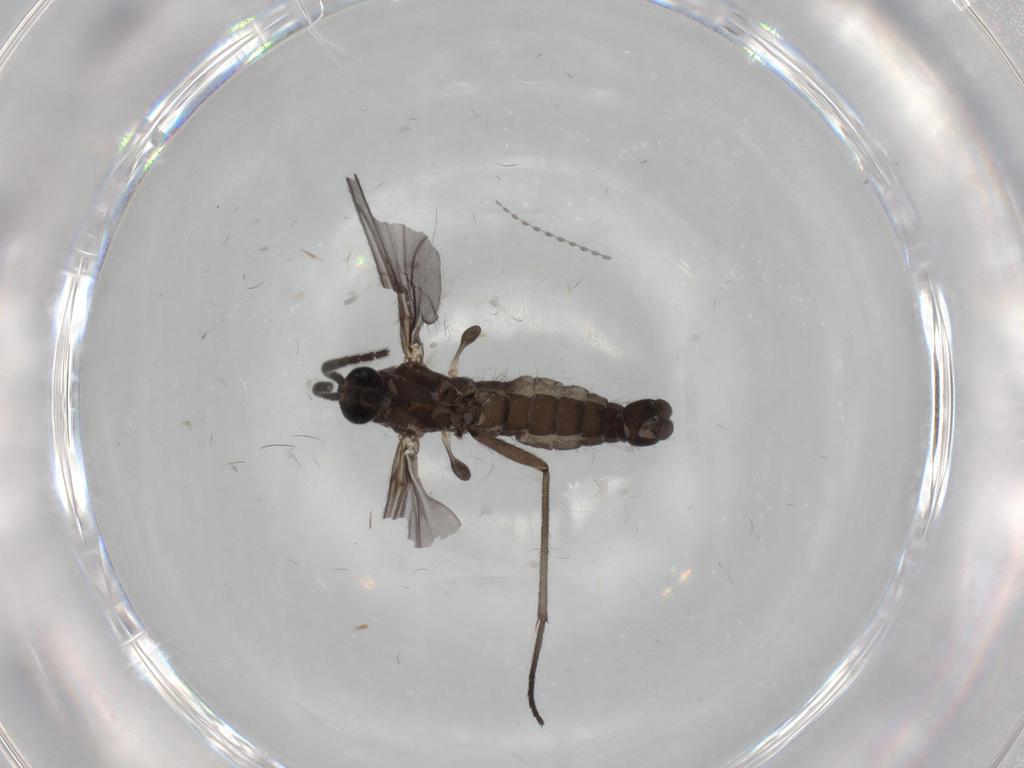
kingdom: Animalia
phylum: Arthropoda
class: Insecta
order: Diptera
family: Sciaridae
